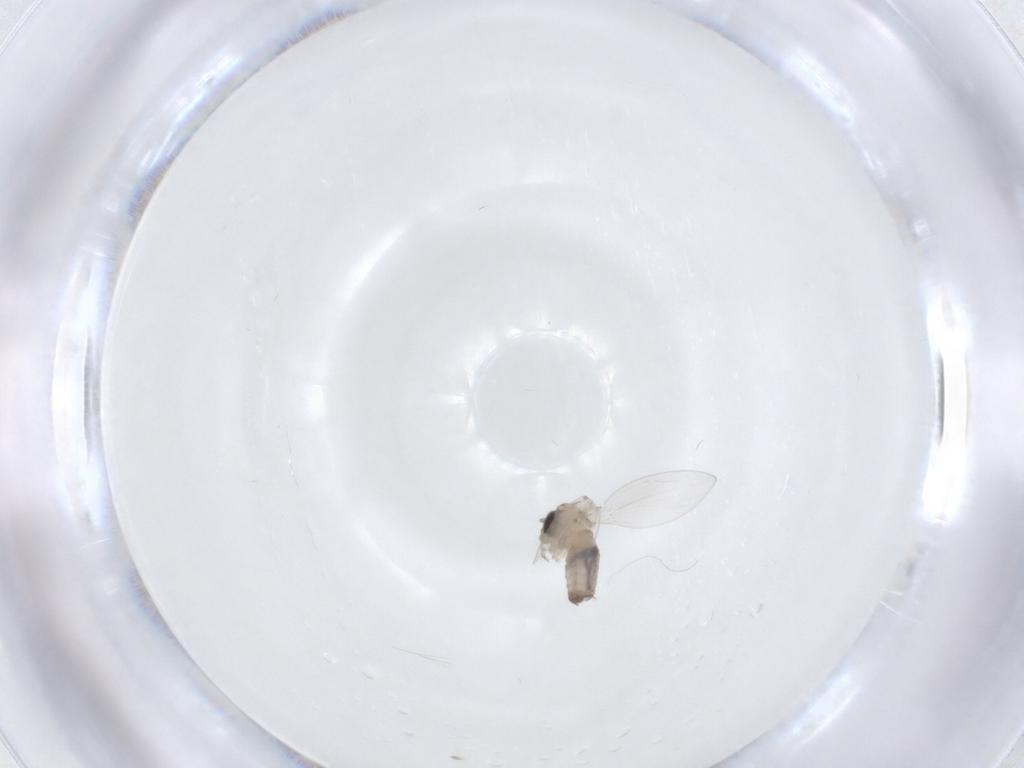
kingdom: Animalia
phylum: Arthropoda
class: Insecta
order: Diptera
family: Psychodidae
